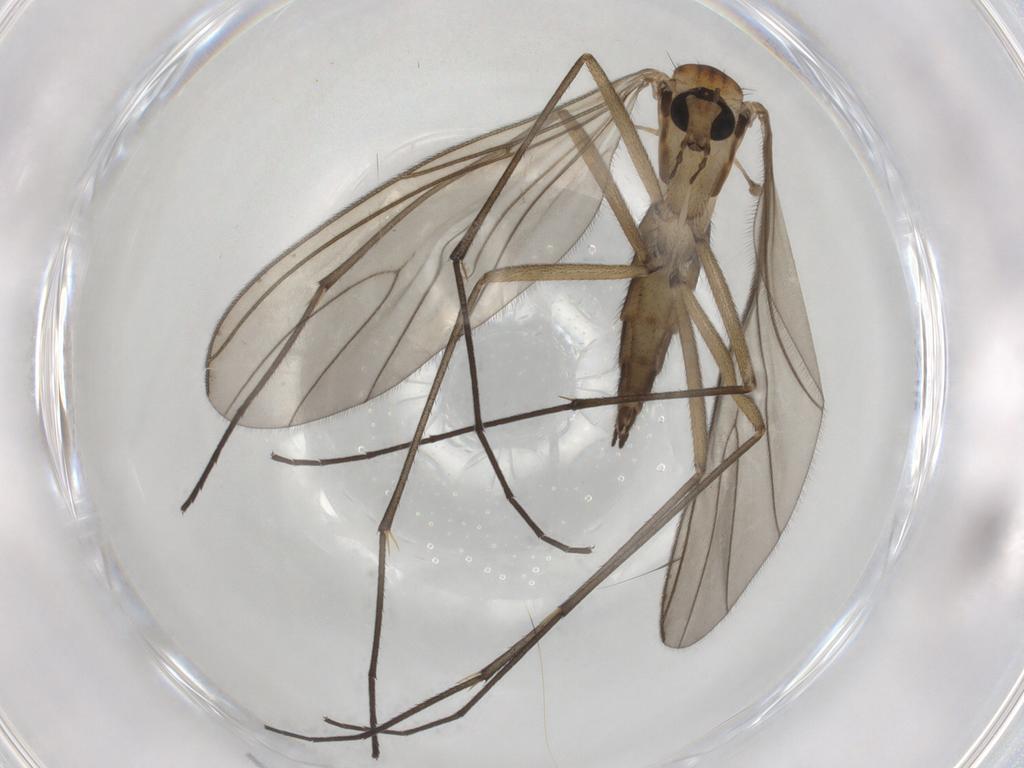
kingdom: Animalia
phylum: Arthropoda
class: Insecta
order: Diptera
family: Sciaridae
